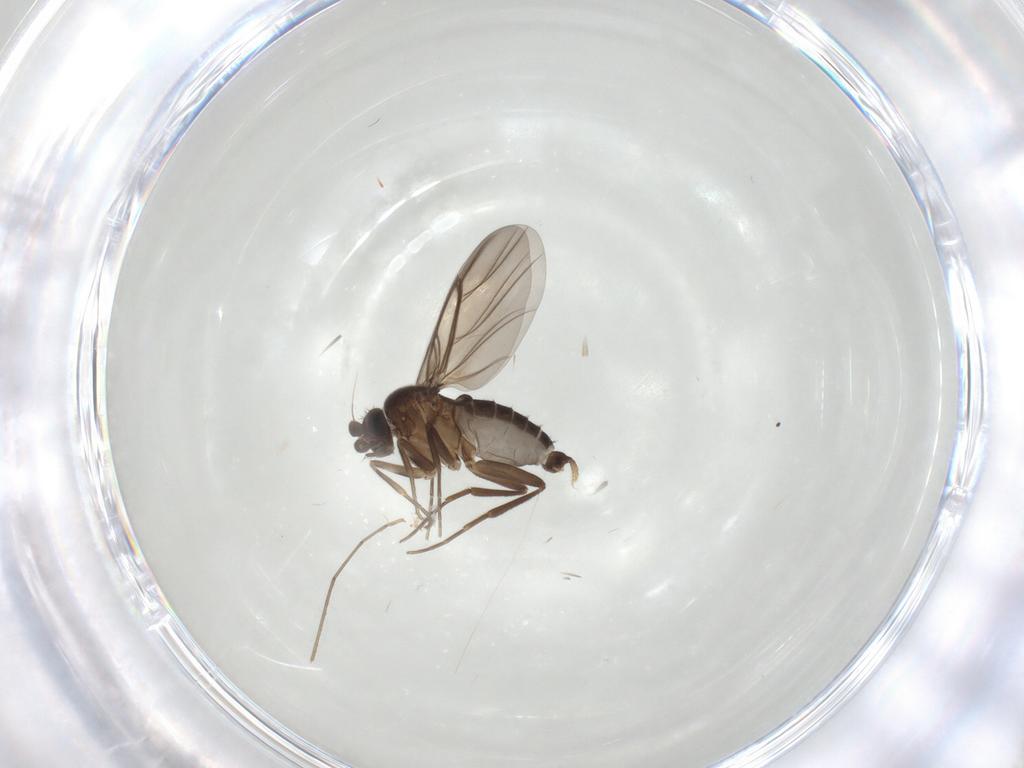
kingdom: Animalia
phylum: Arthropoda
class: Insecta
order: Diptera
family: Cecidomyiidae
